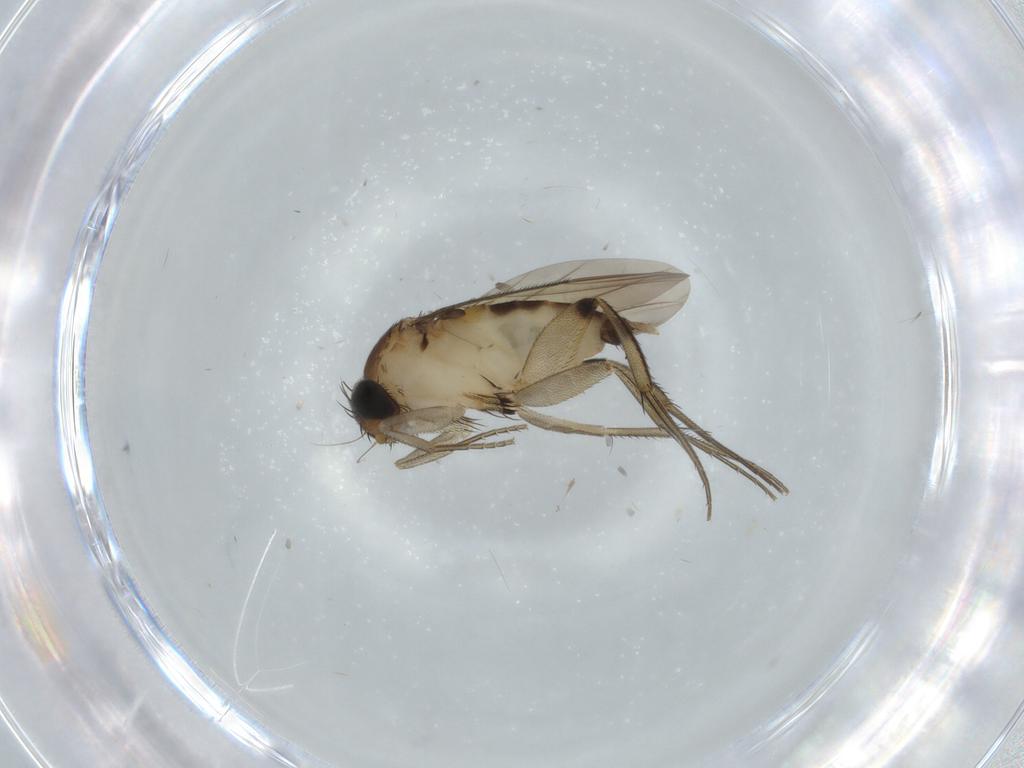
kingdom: Animalia
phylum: Arthropoda
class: Insecta
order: Diptera
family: Phoridae
